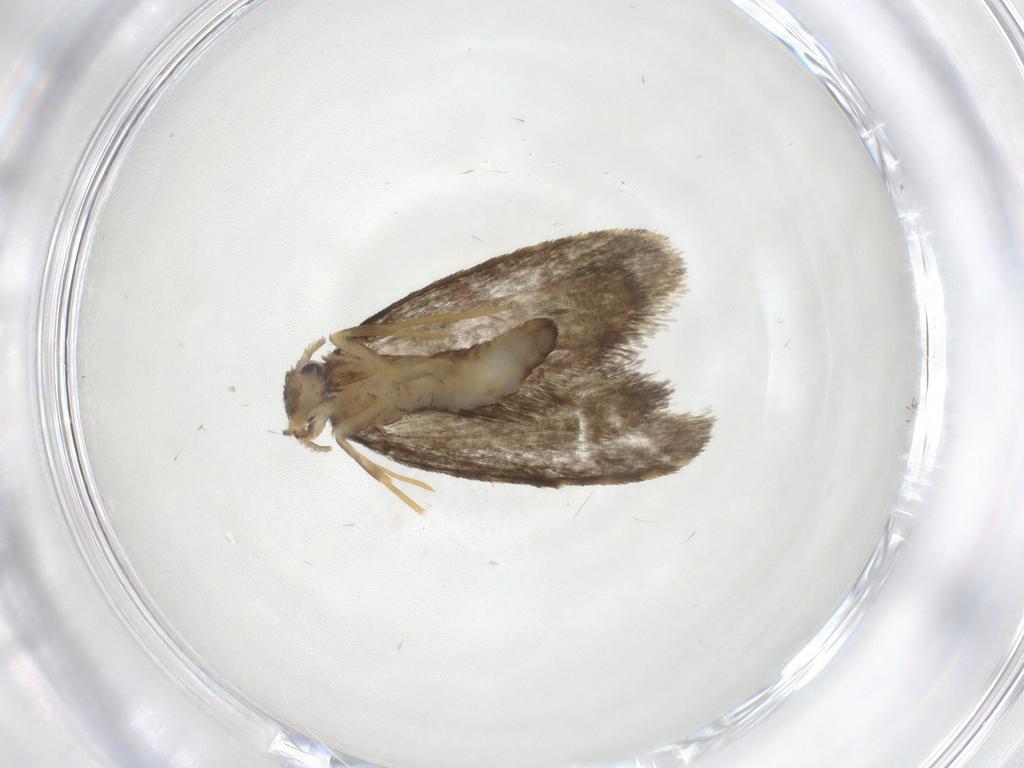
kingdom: Animalia
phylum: Arthropoda
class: Insecta
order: Lepidoptera
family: Psychidae
